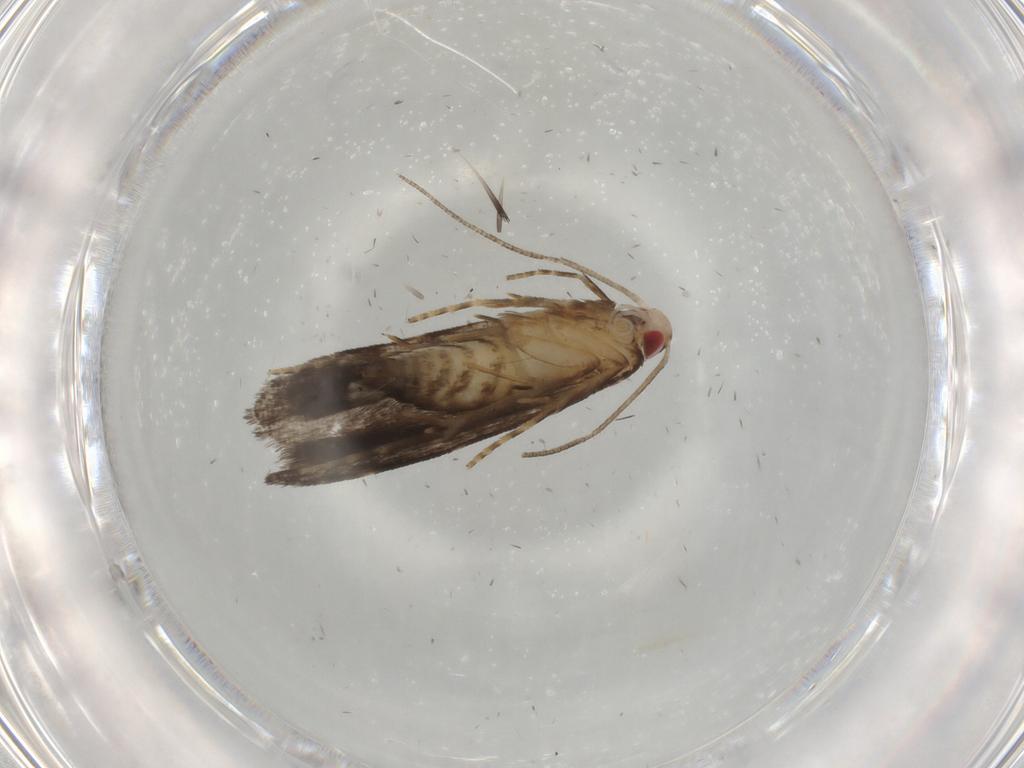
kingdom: Animalia
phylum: Arthropoda
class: Insecta
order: Lepidoptera
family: Gelechiidae
